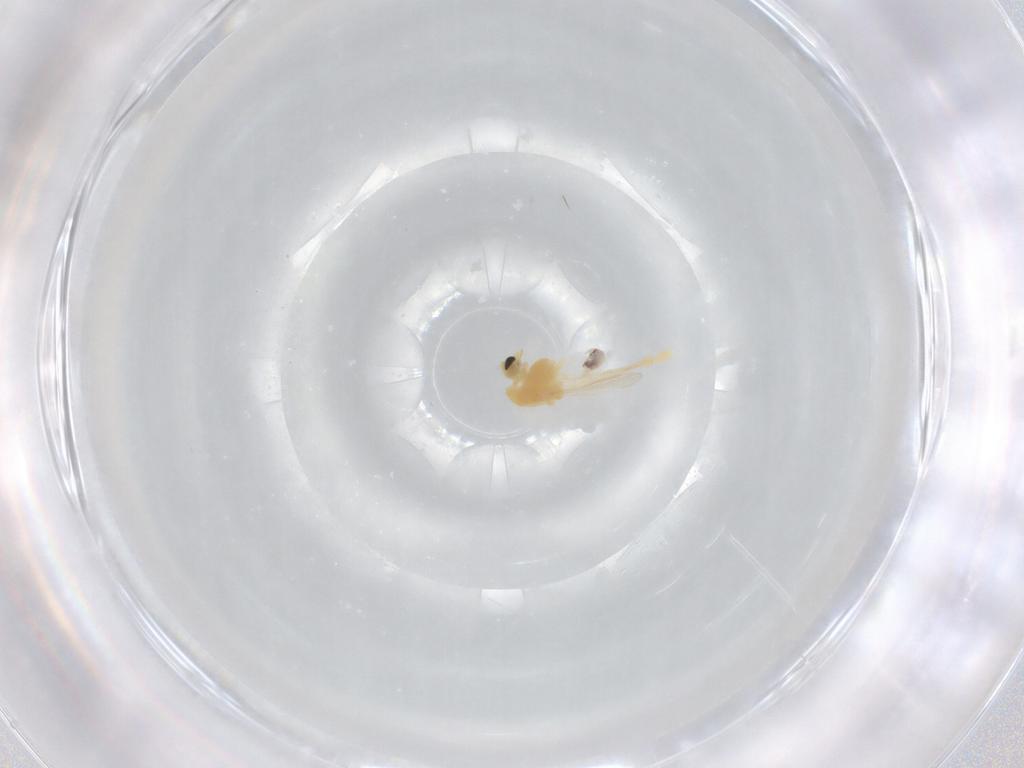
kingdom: Animalia
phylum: Arthropoda
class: Insecta
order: Diptera
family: Chironomidae
